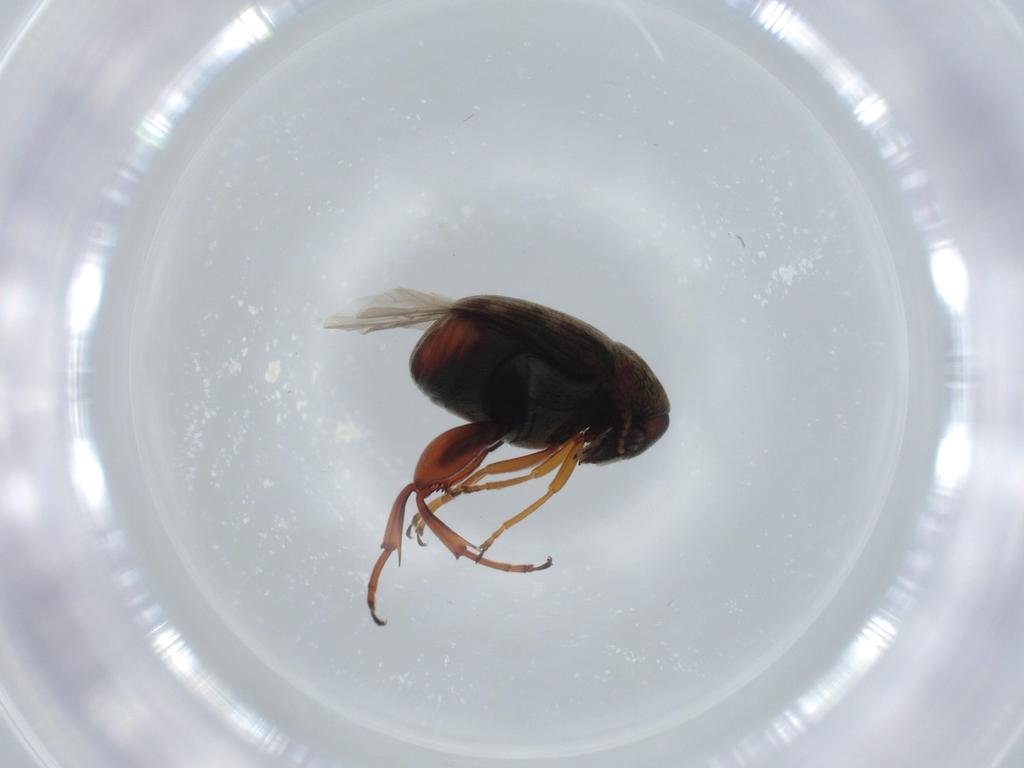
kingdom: Animalia
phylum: Arthropoda
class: Insecta
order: Coleoptera
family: Chrysomelidae
